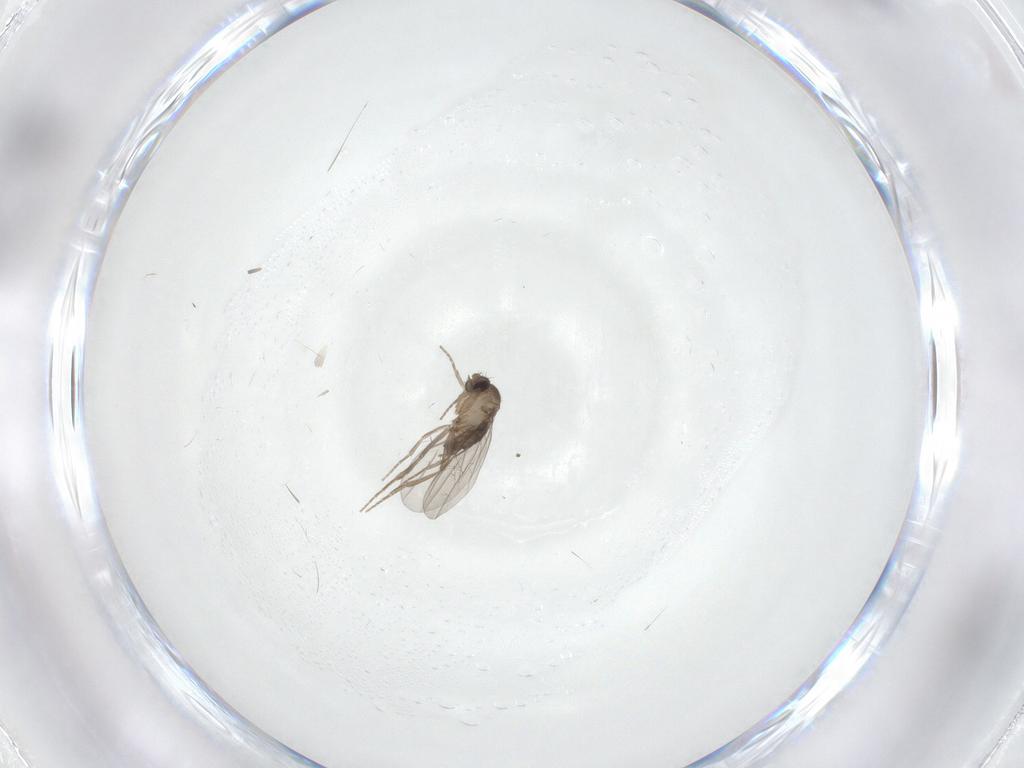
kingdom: Animalia
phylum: Arthropoda
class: Insecta
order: Diptera
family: Phoridae
